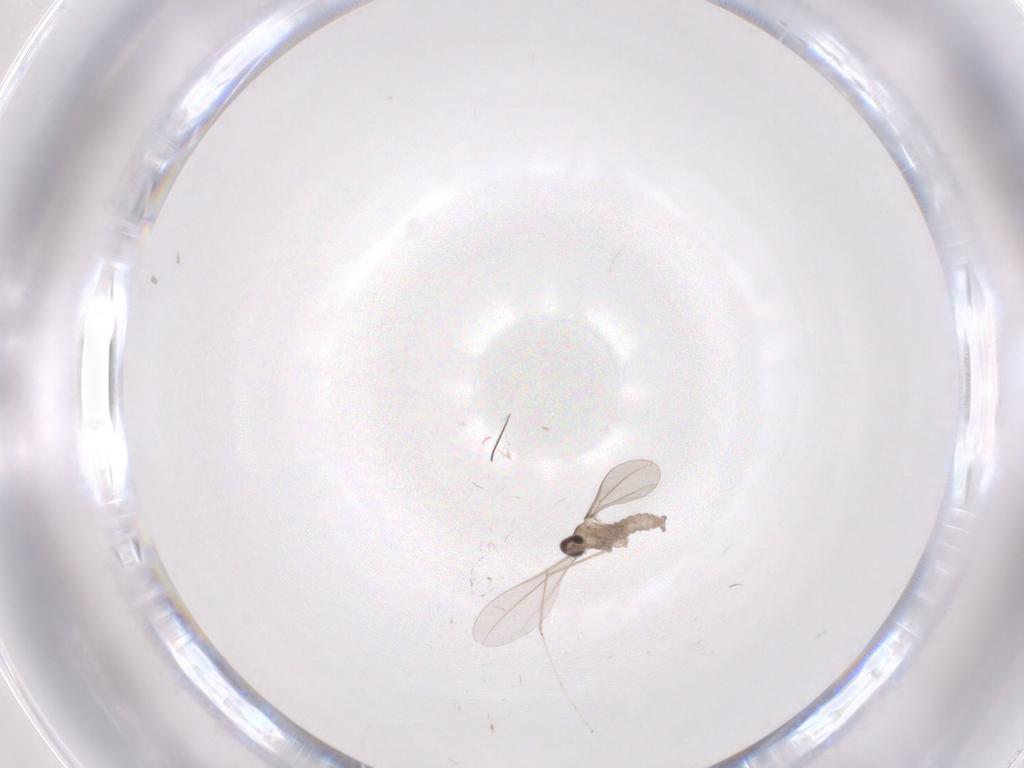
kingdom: Animalia
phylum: Arthropoda
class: Insecta
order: Diptera
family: Cecidomyiidae
